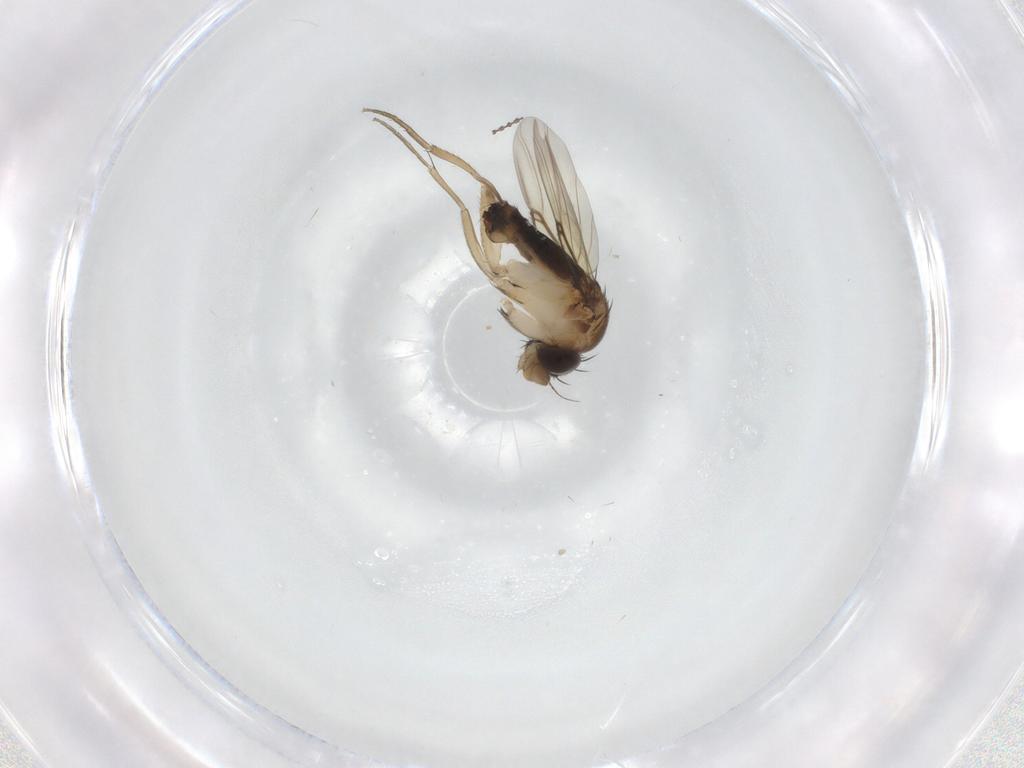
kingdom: Animalia
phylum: Arthropoda
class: Insecta
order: Diptera
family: Phoridae
